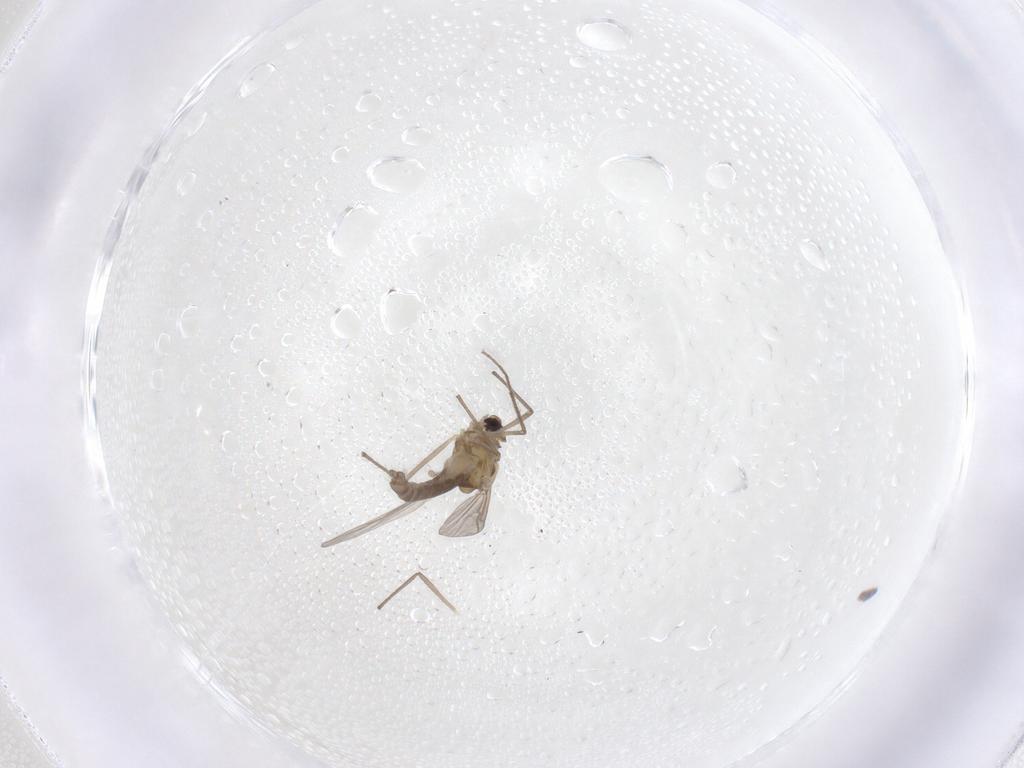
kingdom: Animalia
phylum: Arthropoda
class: Insecta
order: Diptera
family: Chironomidae
